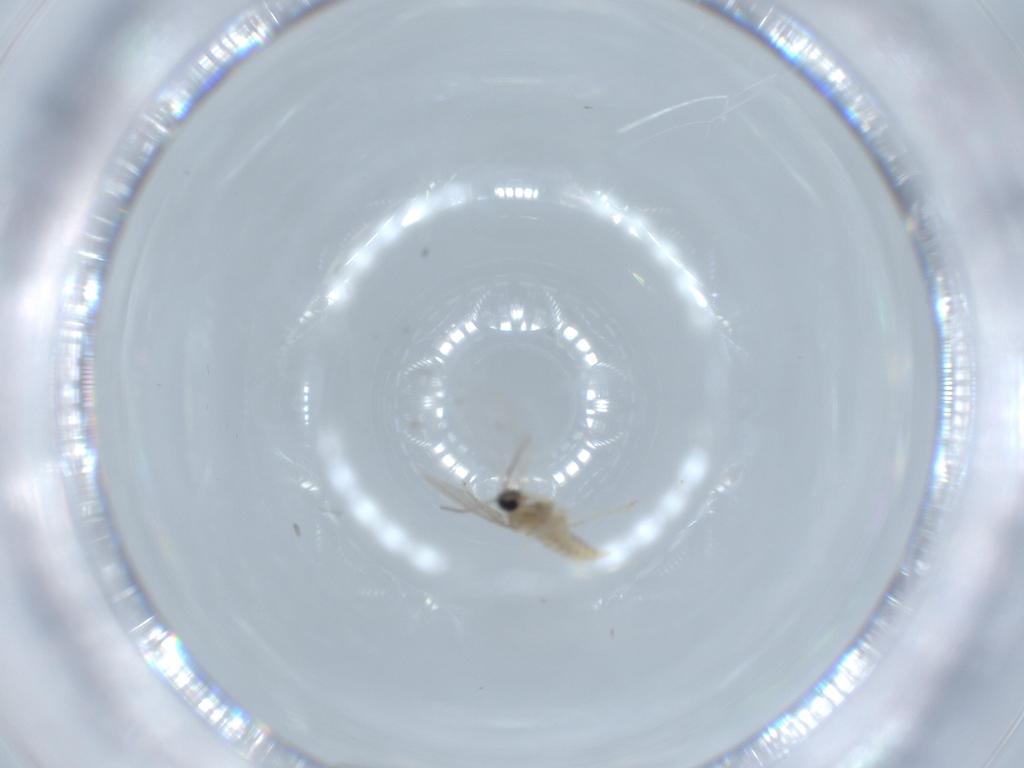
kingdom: Animalia
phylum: Arthropoda
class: Insecta
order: Diptera
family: Cecidomyiidae
